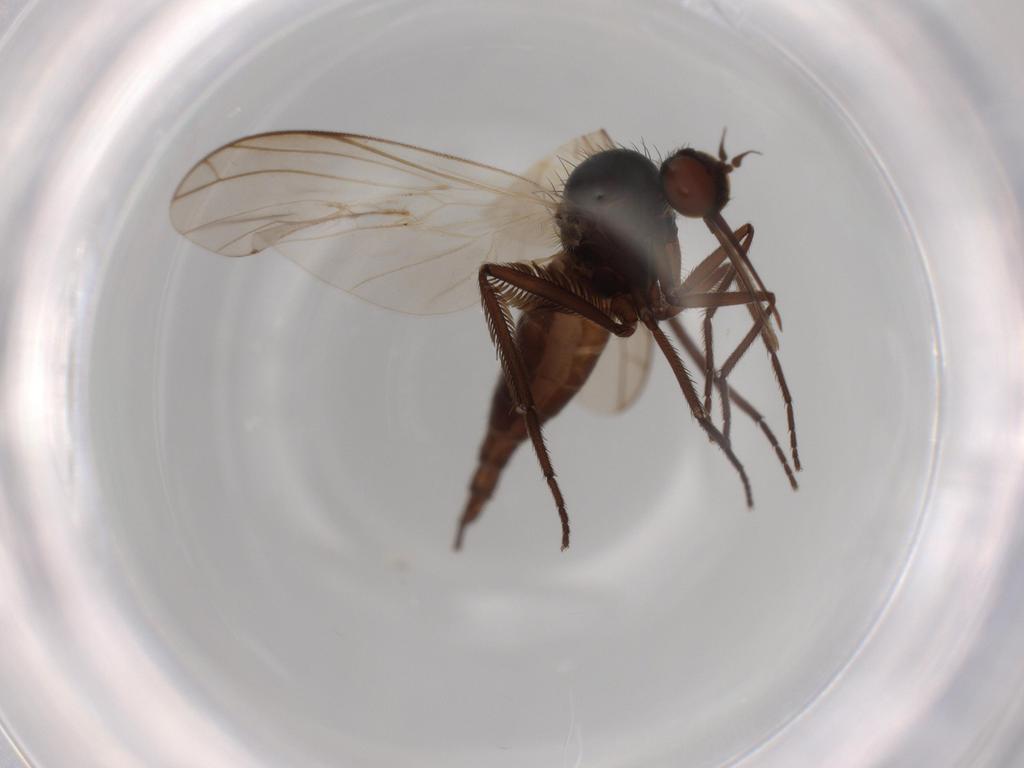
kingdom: Animalia
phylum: Arthropoda
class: Insecta
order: Diptera
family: Empididae
